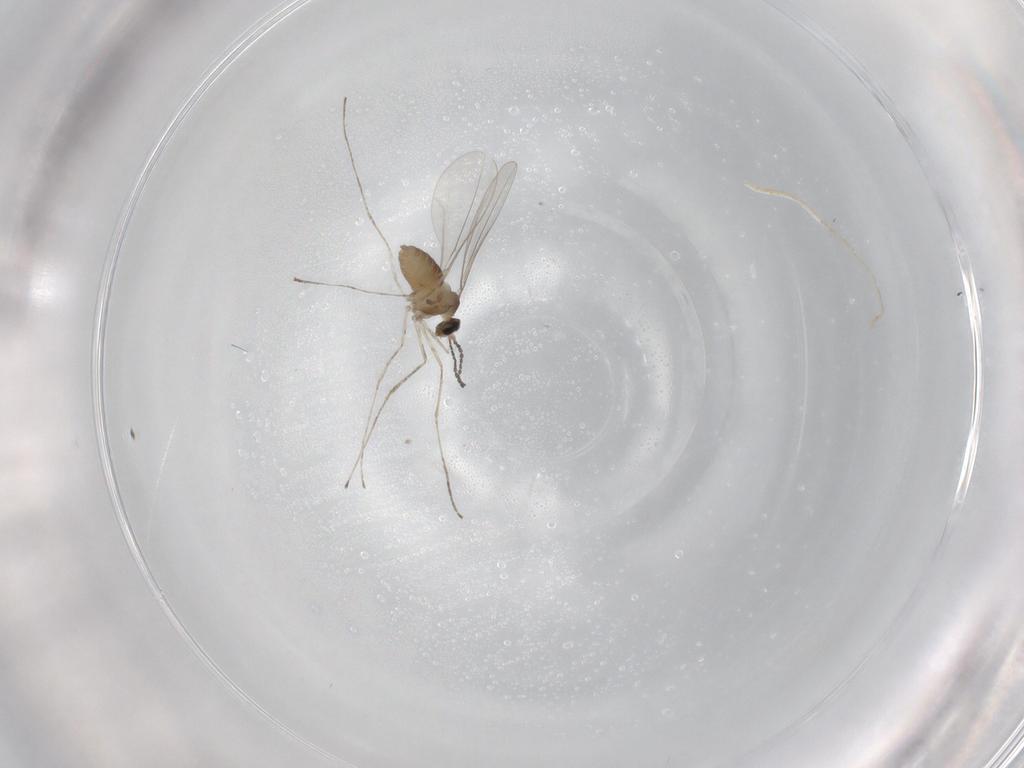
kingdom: Animalia
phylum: Arthropoda
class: Insecta
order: Diptera
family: Cecidomyiidae
